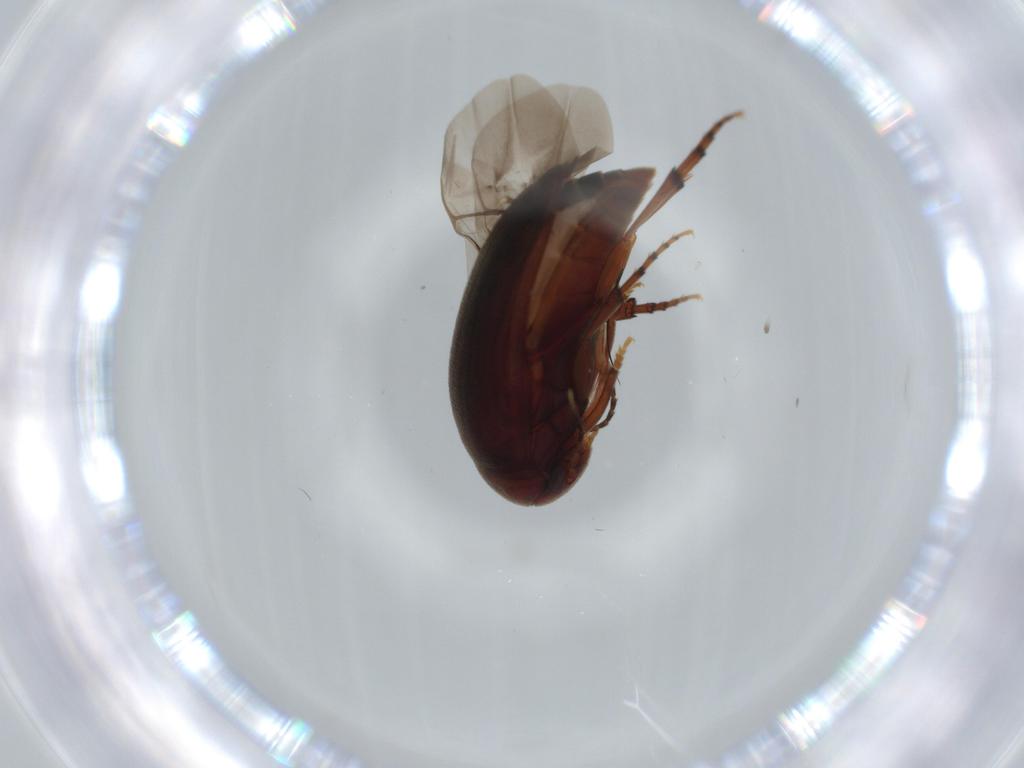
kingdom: Animalia
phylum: Arthropoda
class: Insecta
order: Coleoptera
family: Eucinetidae
